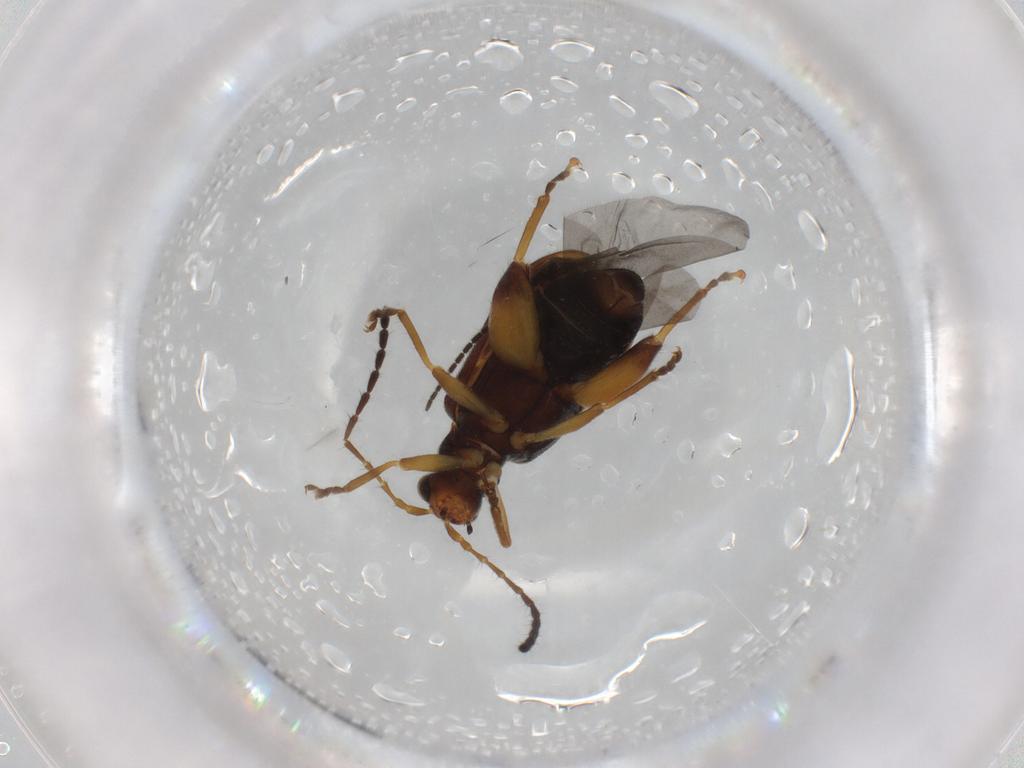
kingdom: Animalia
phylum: Arthropoda
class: Insecta
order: Coleoptera
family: Chrysomelidae
